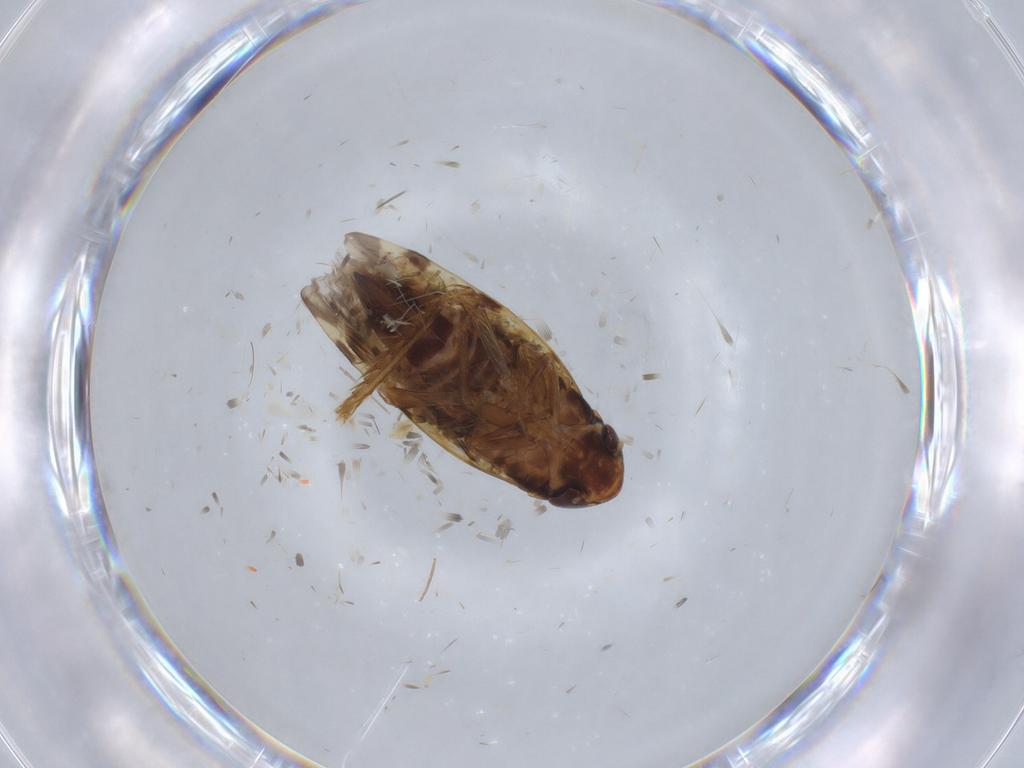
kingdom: Animalia
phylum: Arthropoda
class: Insecta
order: Hemiptera
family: Cicadellidae
